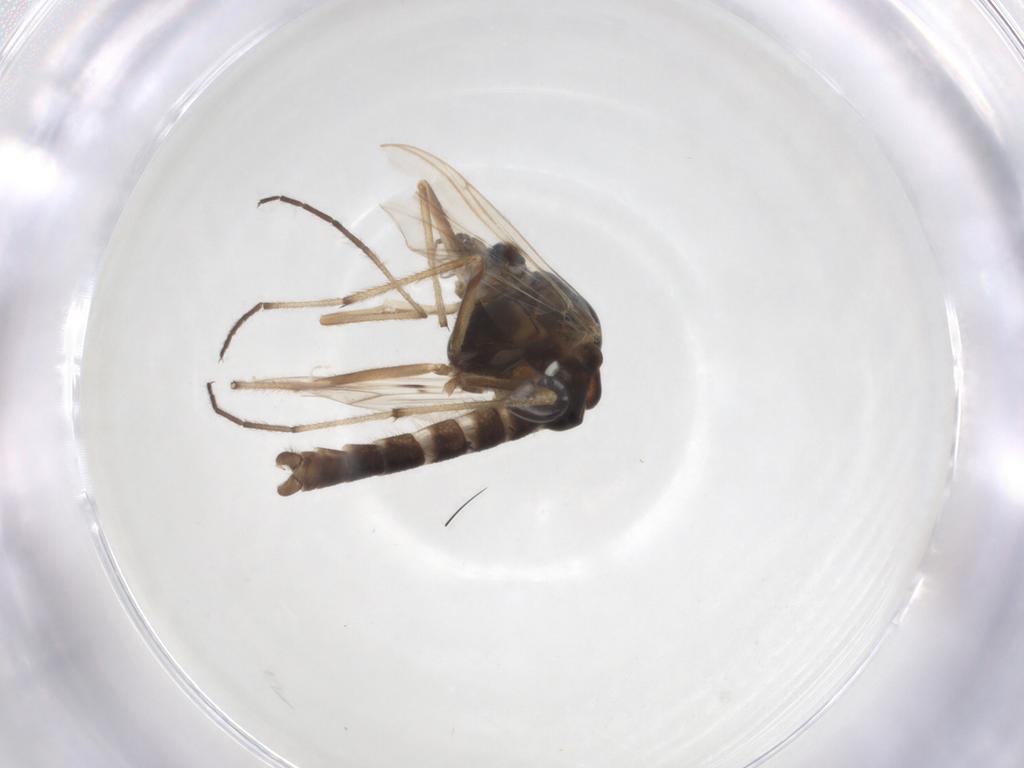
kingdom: Animalia
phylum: Arthropoda
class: Insecta
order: Diptera
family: Chironomidae
